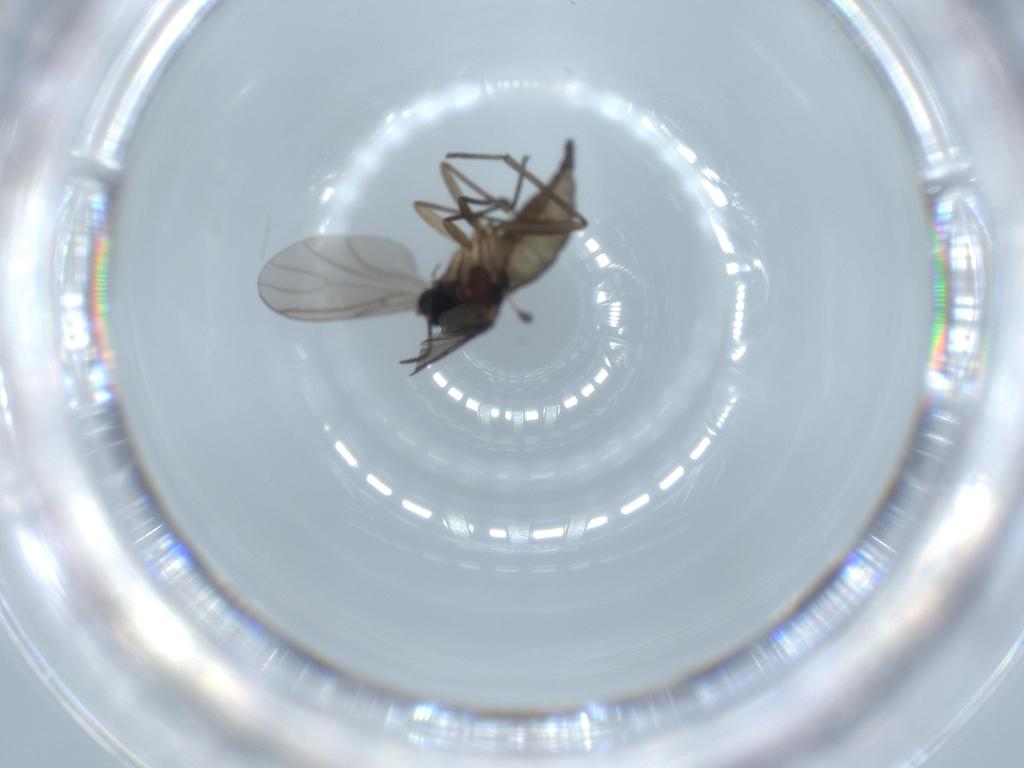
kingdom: Animalia
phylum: Arthropoda
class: Insecta
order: Diptera
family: Sciaridae
